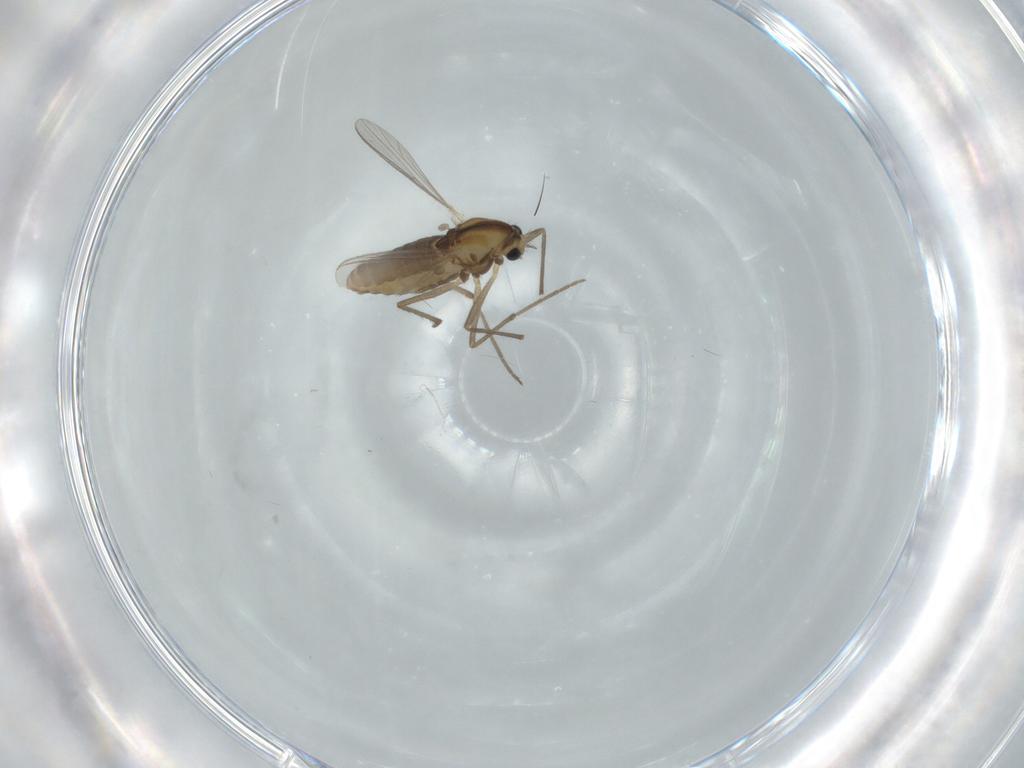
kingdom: Animalia
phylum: Arthropoda
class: Insecta
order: Diptera
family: Chironomidae
